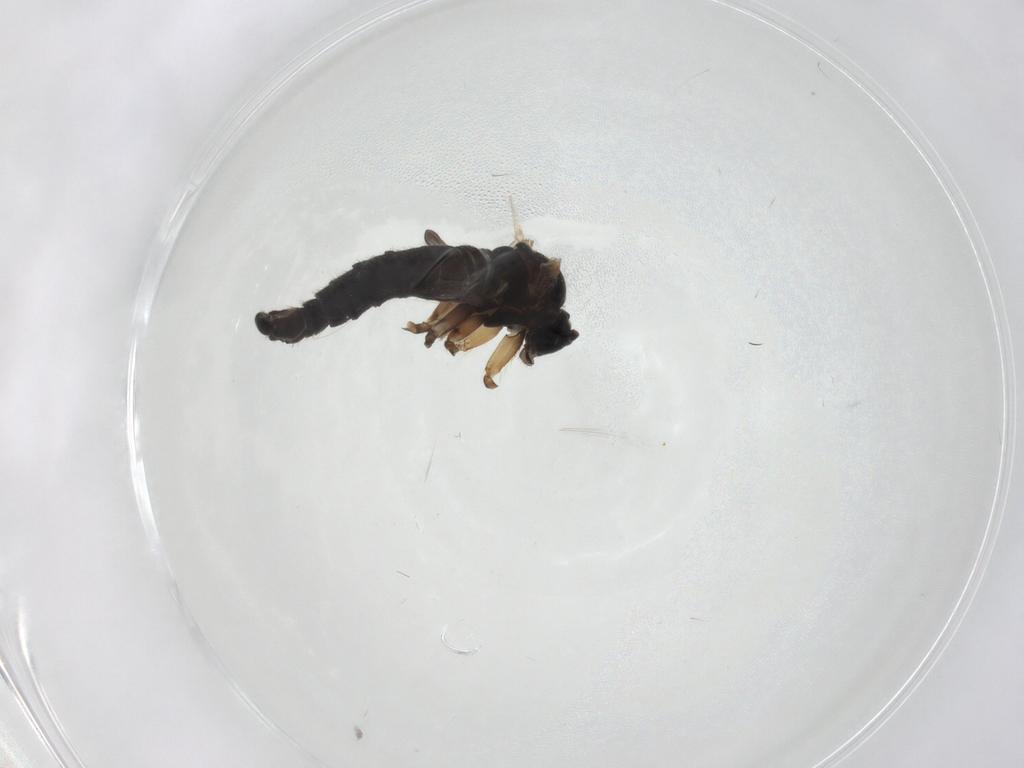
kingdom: Animalia
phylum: Arthropoda
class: Insecta
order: Diptera
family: Sciaridae
